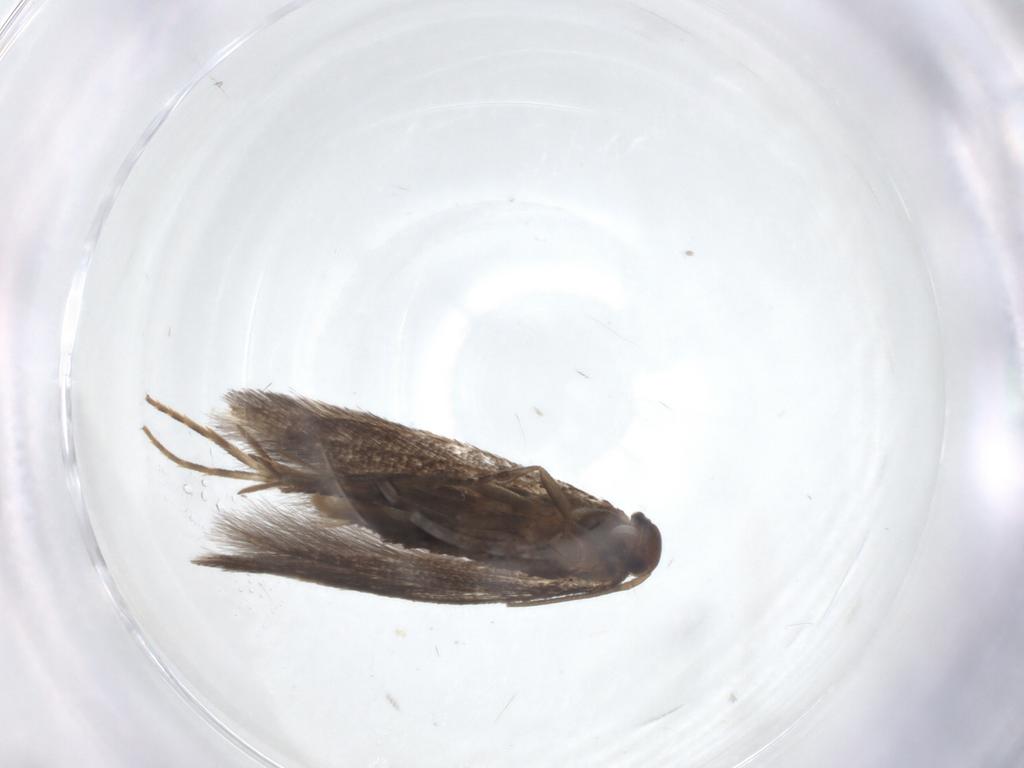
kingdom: Animalia
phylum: Arthropoda
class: Insecta
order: Lepidoptera
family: Elachistidae
